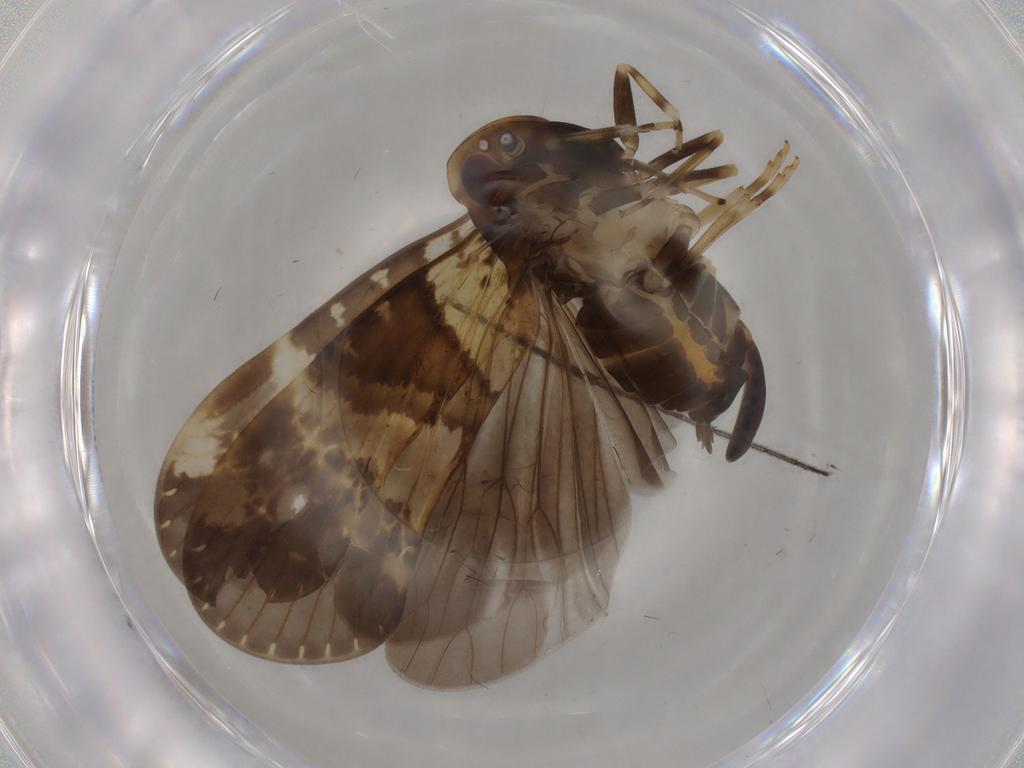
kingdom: Animalia
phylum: Arthropoda
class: Insecta
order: Hemiptera
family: Cixiidae
